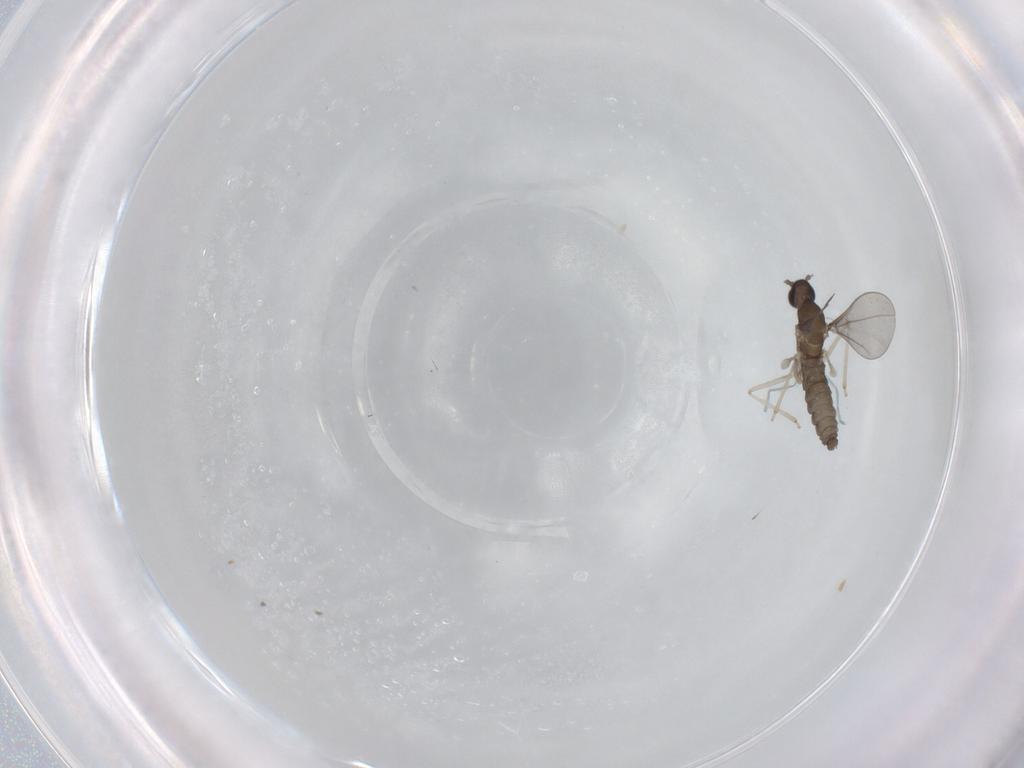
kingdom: Animalia
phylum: Arthropoda
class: Insecta
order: Diptera
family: Cecidomyiidae
